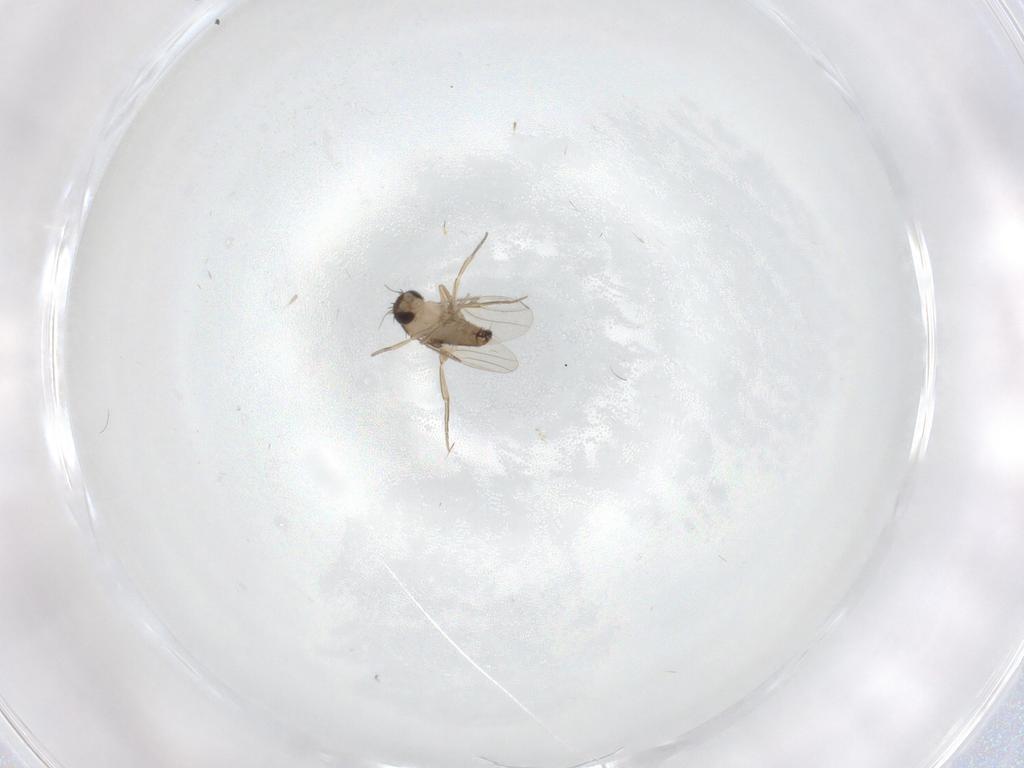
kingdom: Animalia
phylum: Arthropoda
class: Insecta
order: Diptera
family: Phoridae
